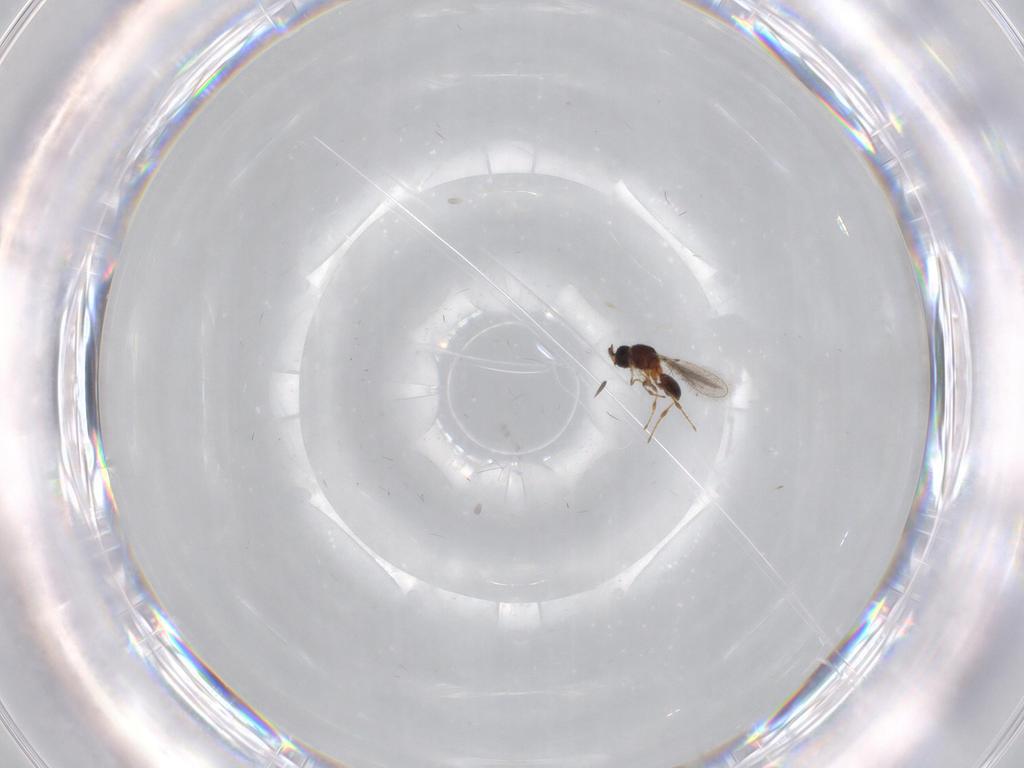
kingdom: Animalia
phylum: Arthropoda
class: Insecta
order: Hymenoptera
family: Diapriidae
